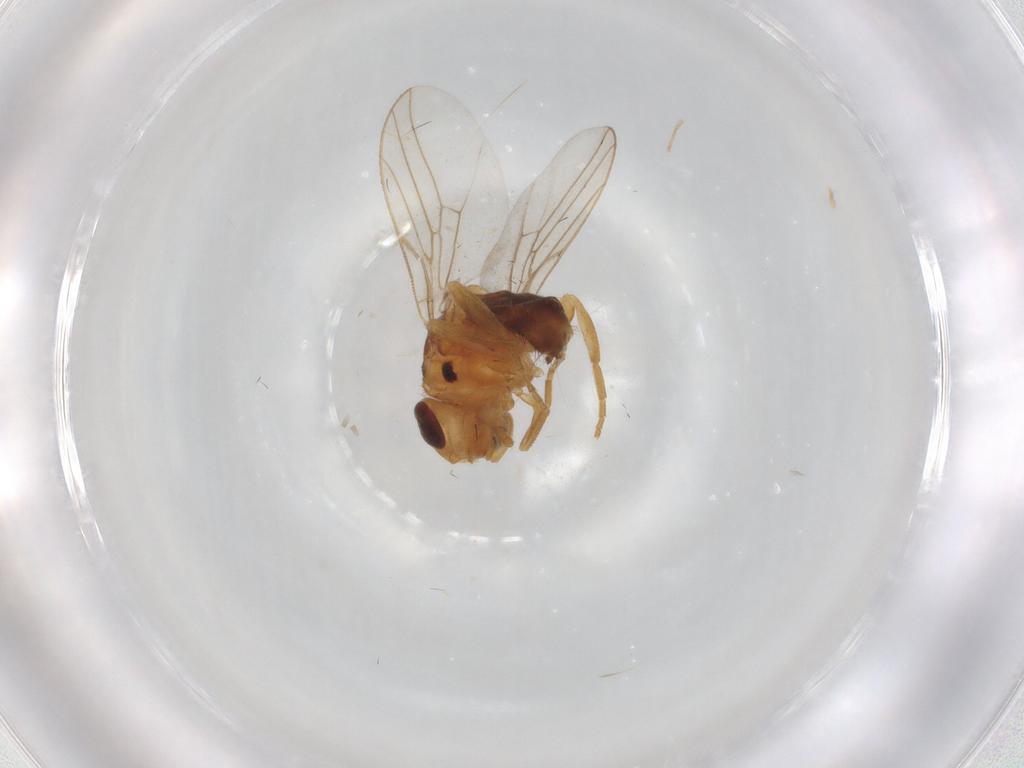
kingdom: Animalia
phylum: Arthropoda
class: Insecta
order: Diptera
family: Chloropidae
